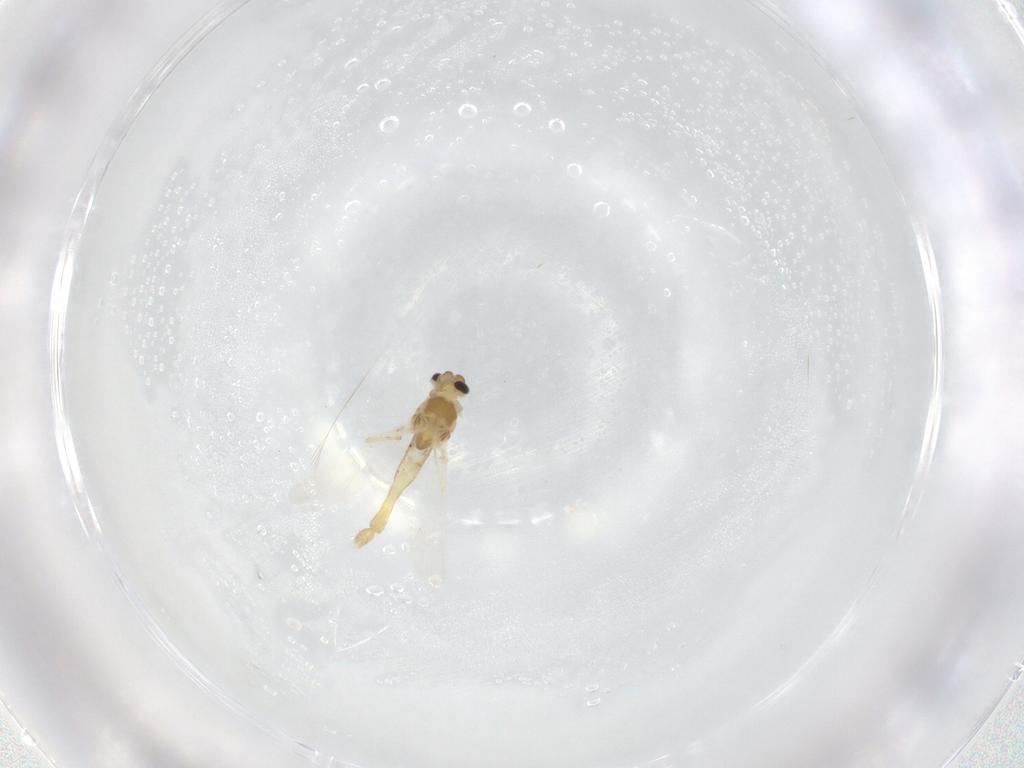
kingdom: Animalia
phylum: Arthropoda
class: Insecta
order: Diptera
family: Chironomidae
